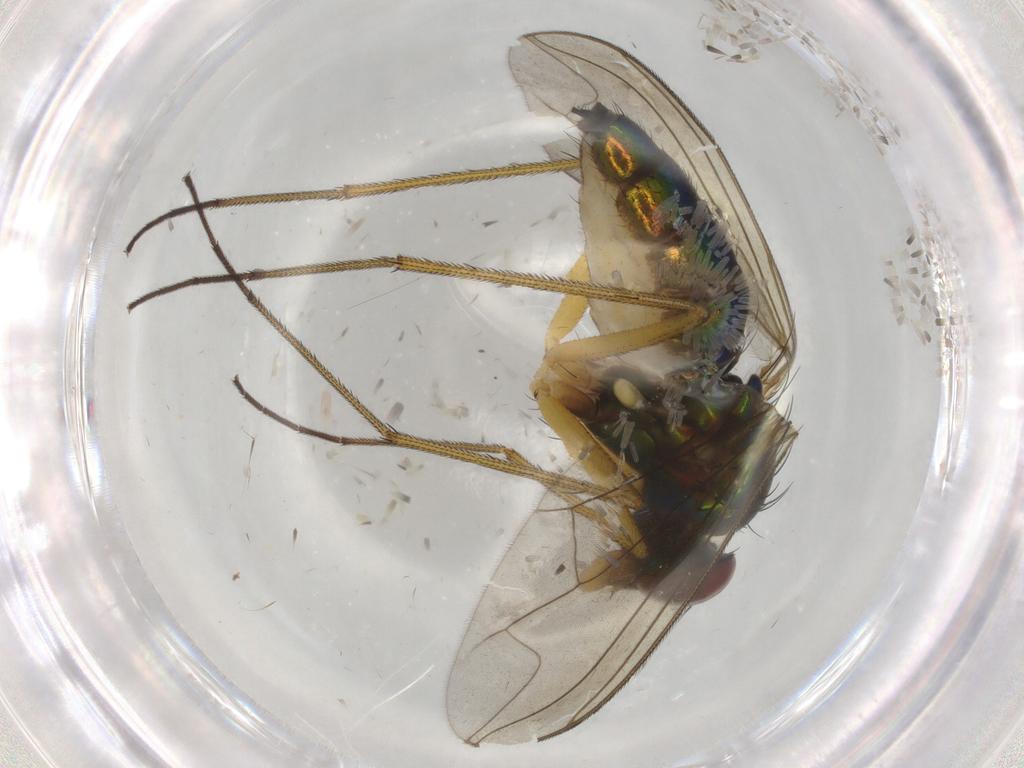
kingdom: Animalia
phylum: Arthropoda
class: Insecta
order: Diptera
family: Dolichopodidae
